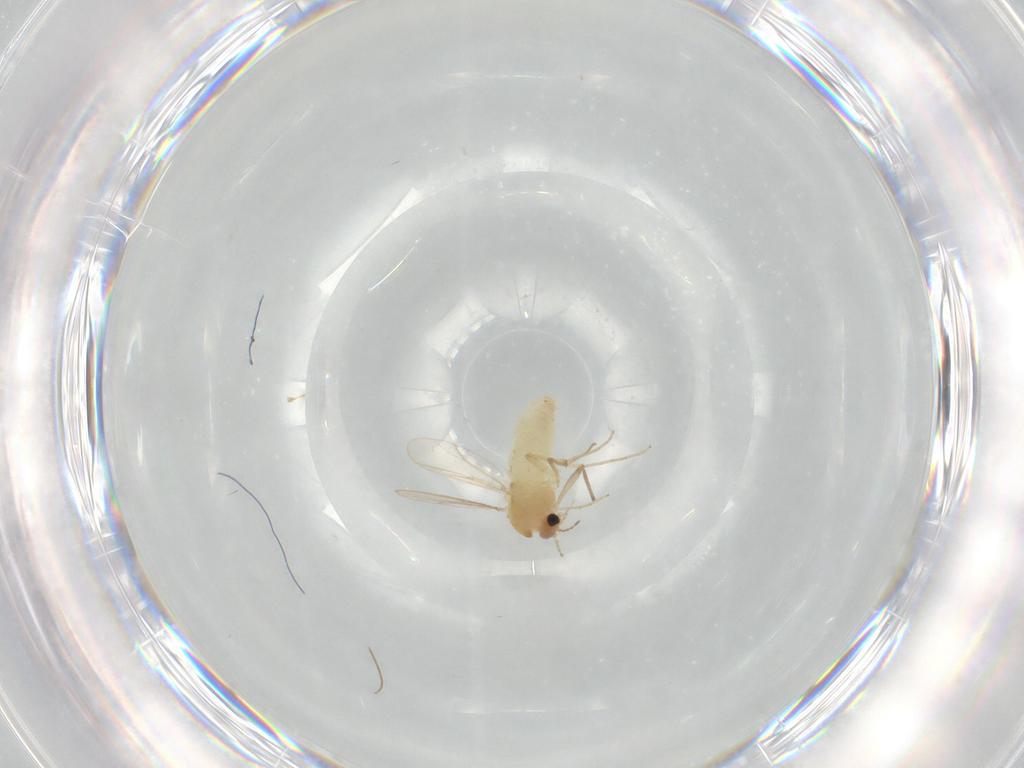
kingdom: Animalia
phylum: Arthropoda
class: Insecta
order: Diptera
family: Chironomidae
